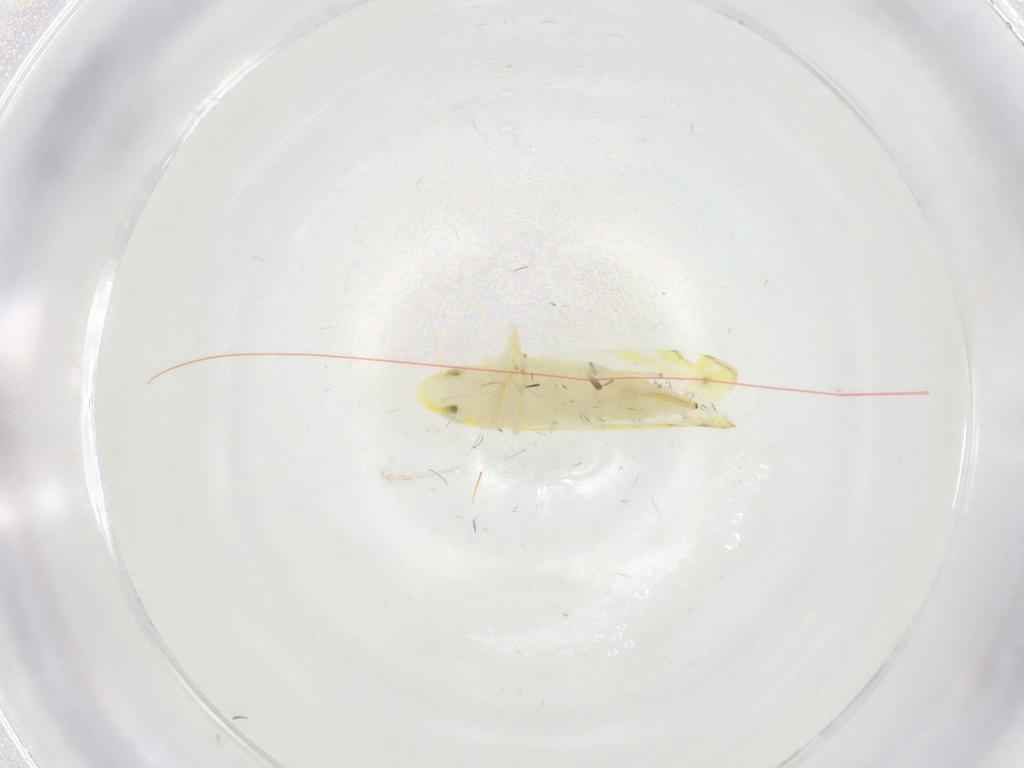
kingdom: Animalia
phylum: Arthropoda
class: Insecta
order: Hemiptera
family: Cicadellidae
